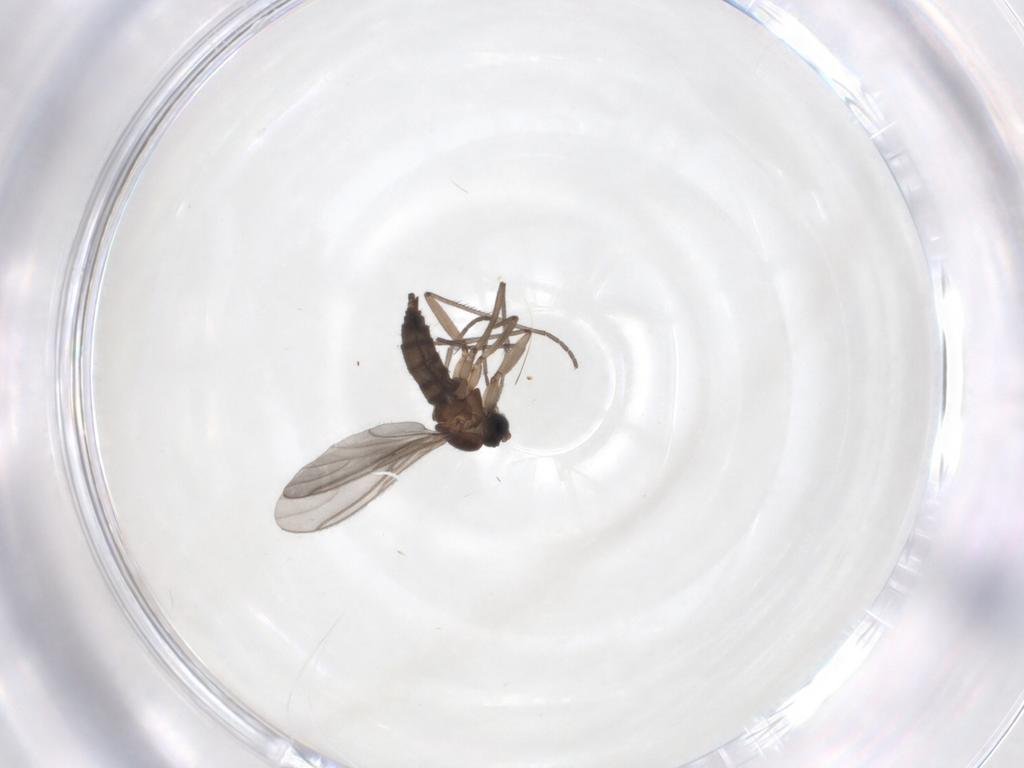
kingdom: Animalia
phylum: Arthropoda
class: Insecta
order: Diptera
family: Sciaridae
